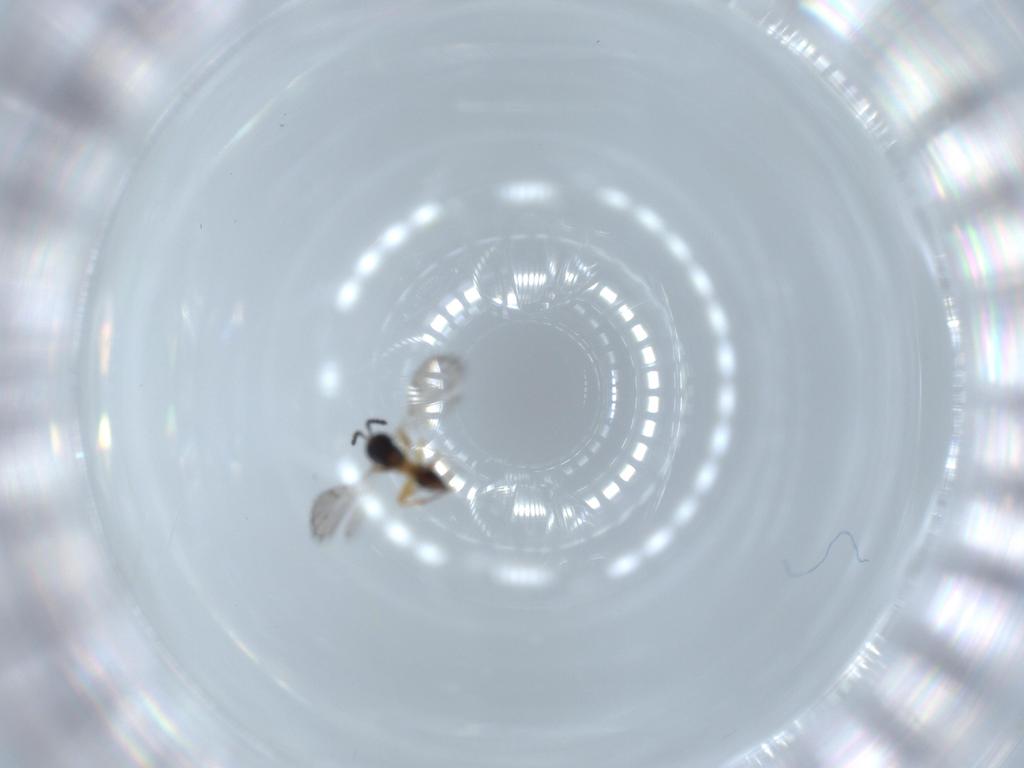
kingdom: Animalia
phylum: Arthropoda
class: Insecta
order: Hymenoptera
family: Figitidae
